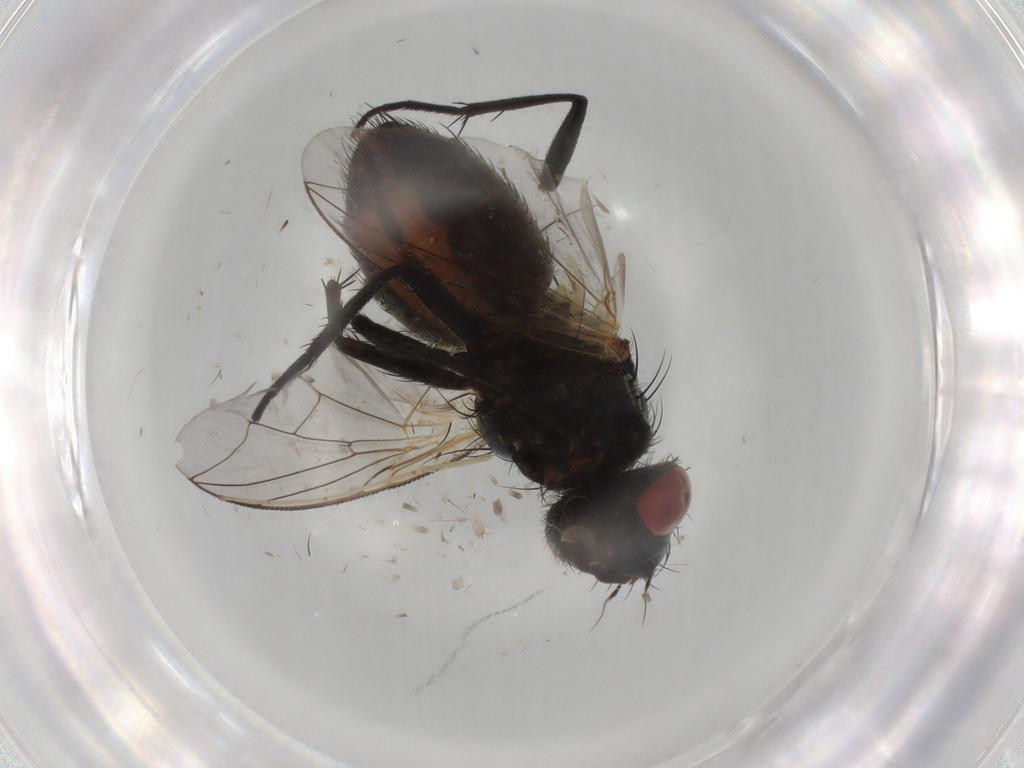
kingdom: Animalia
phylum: Arthropoda
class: Insecta
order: Diptera
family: Sarcophagidae
